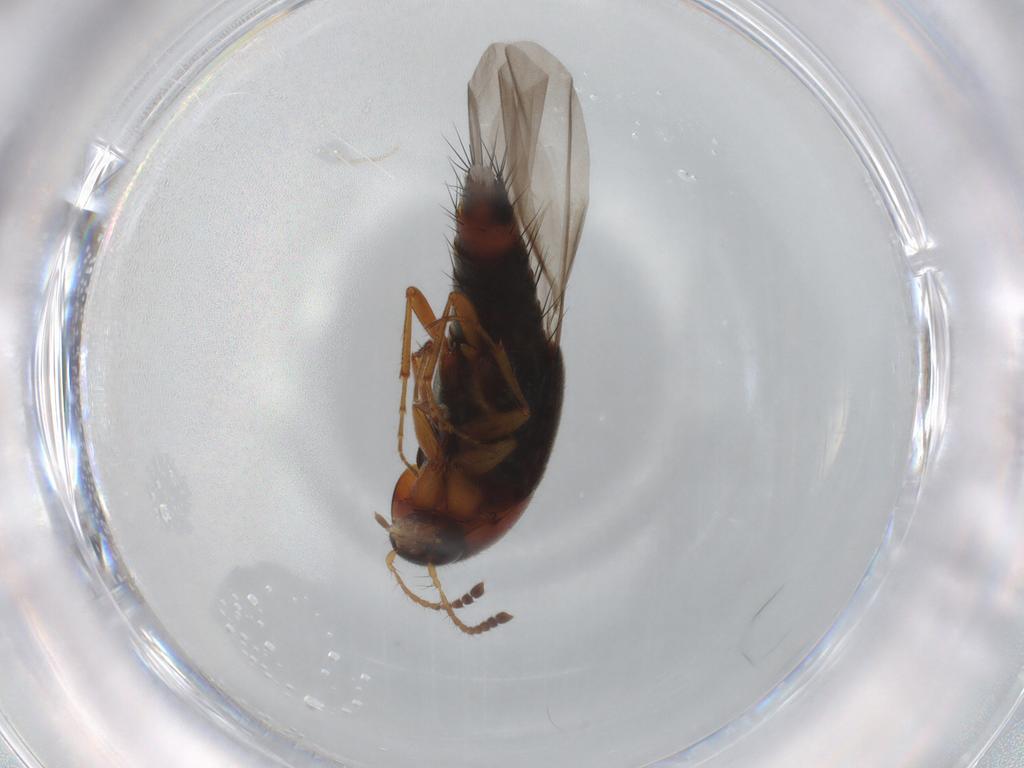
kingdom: Animalia
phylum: Arthropoda
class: Insecta
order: Coleoptera
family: Staphylinidae
